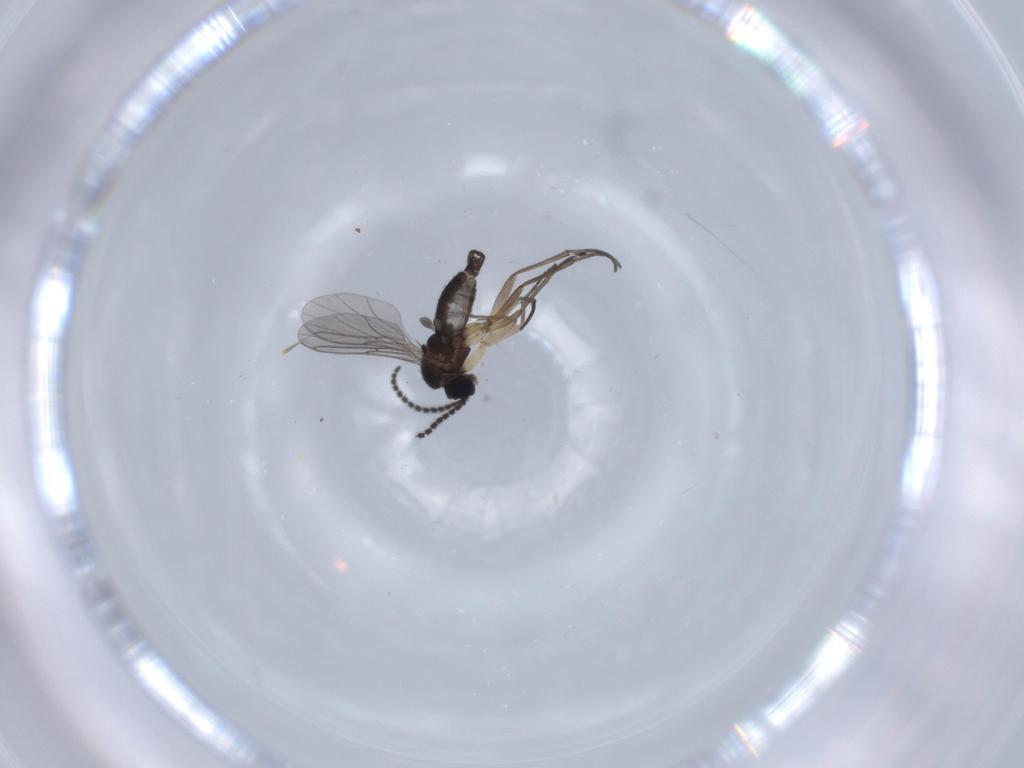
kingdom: Animalia
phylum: Arthropoda
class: Insecta
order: Diptera
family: Sciaridae
